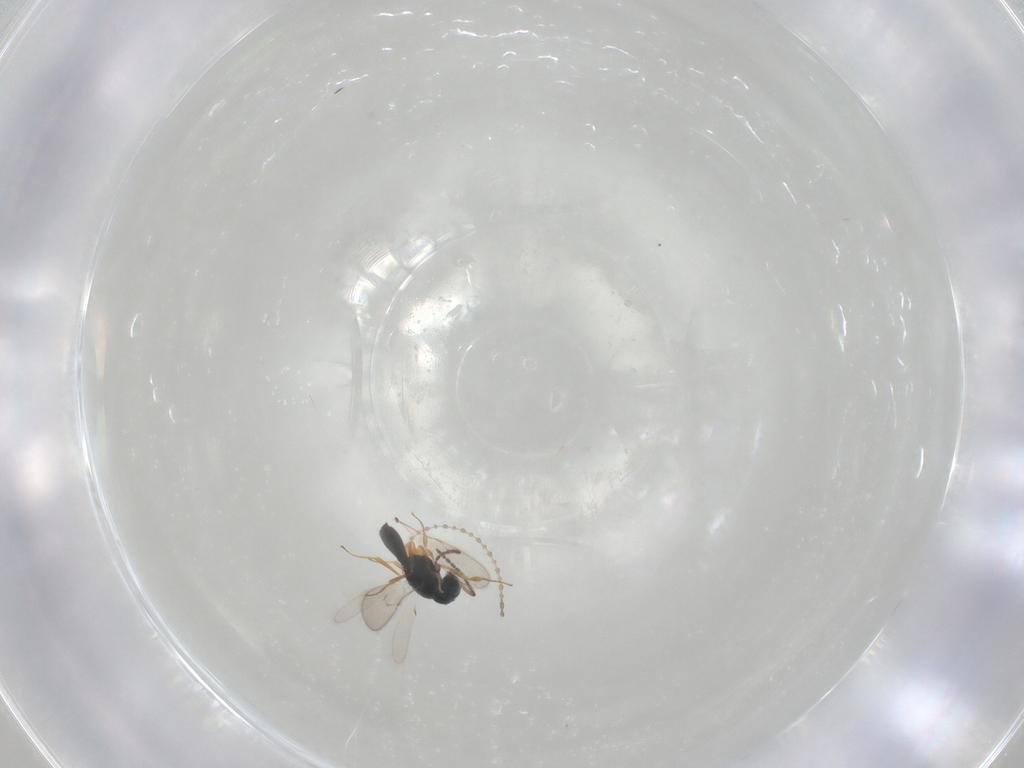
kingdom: Animalia
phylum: Arthropoda
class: Insecta
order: Hymenoptera
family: Scelionidae
